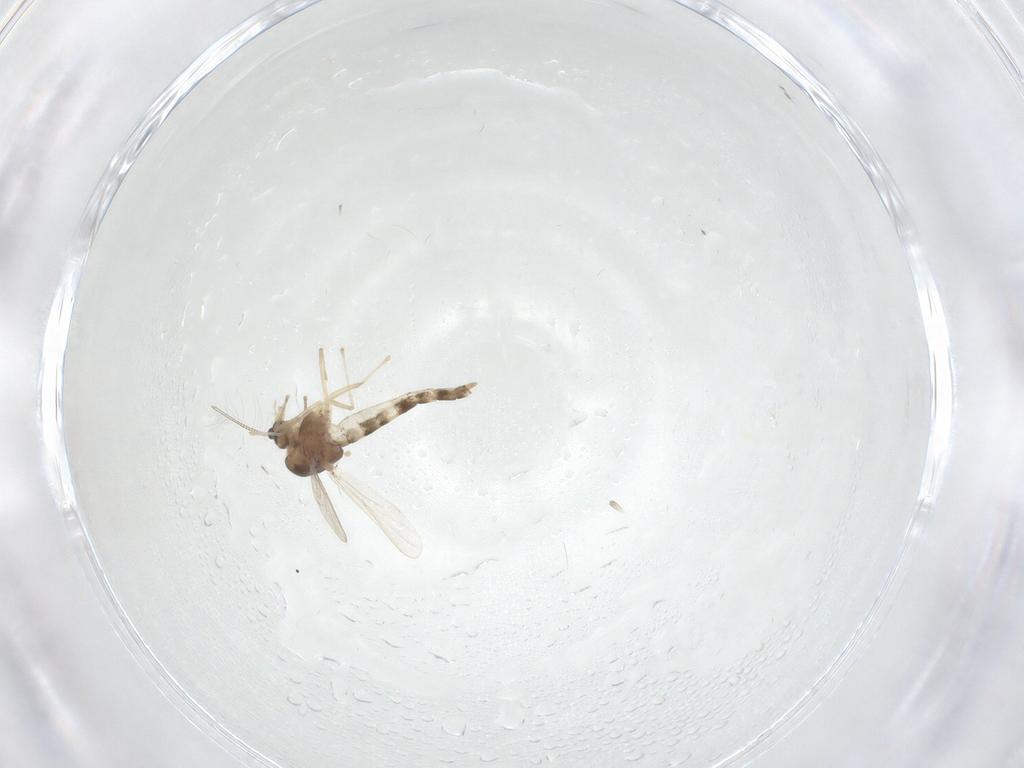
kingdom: Animalia
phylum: Arthropoda
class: Insecta
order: Diptera
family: Chironomidae
